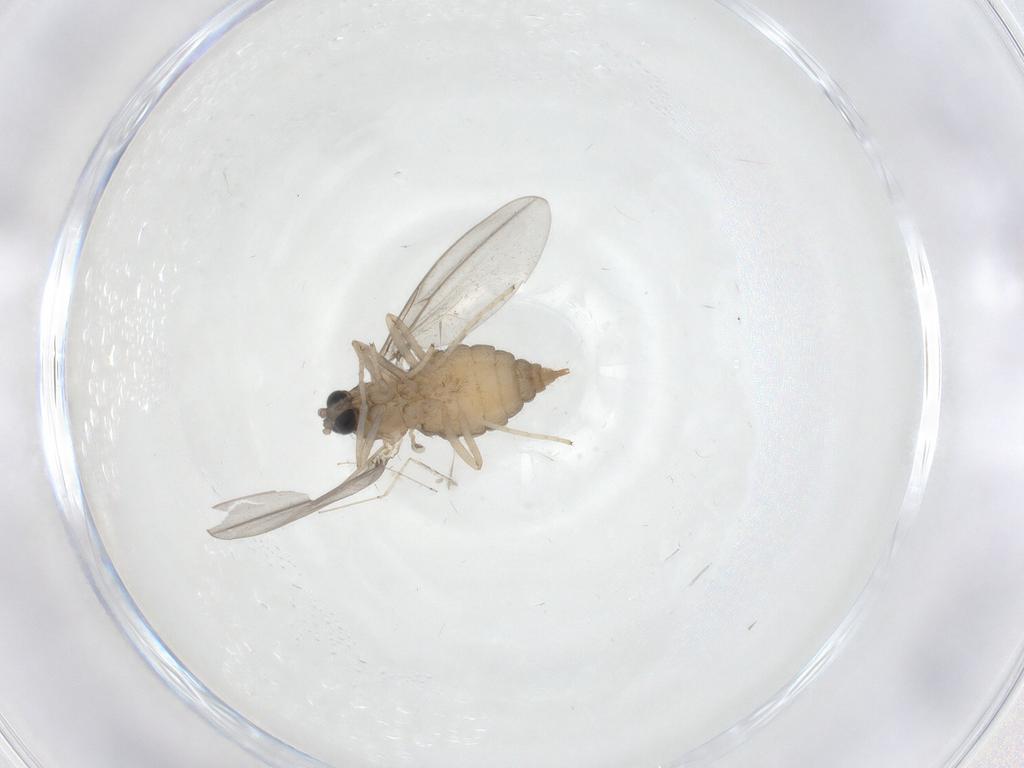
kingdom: Animalia
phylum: Arthropoda
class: Insecta
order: Diptera
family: Cecidomyiidae
